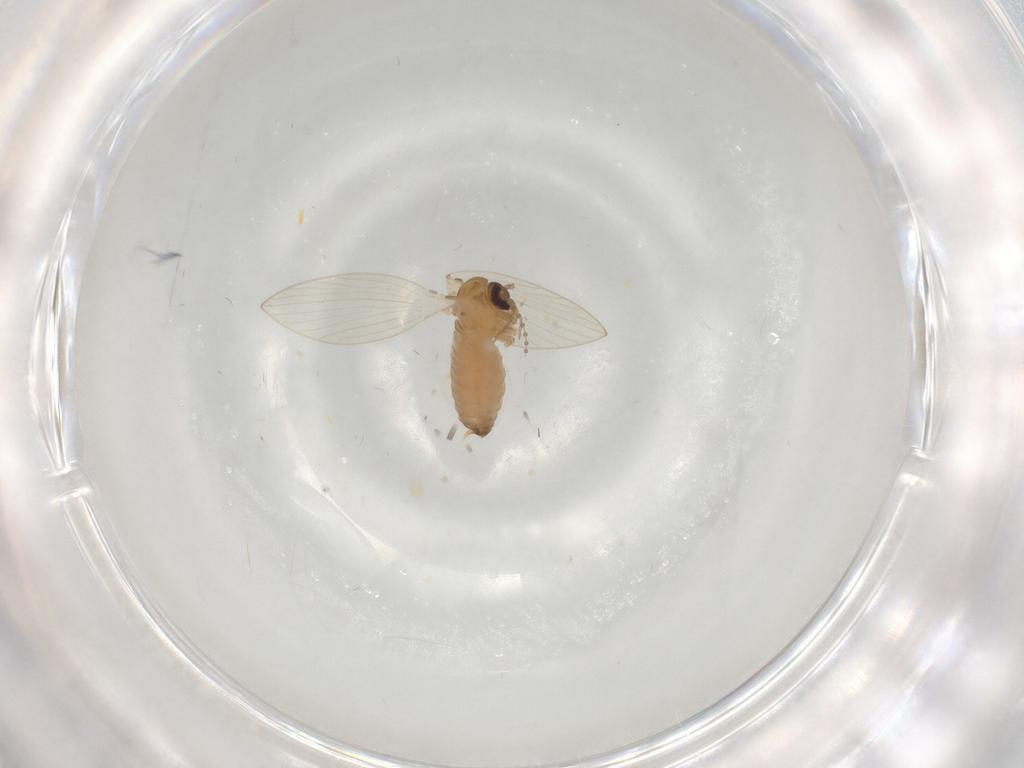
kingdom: Animalia
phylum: Arthropoda
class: Insecta
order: Diptera
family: Psychodidae
